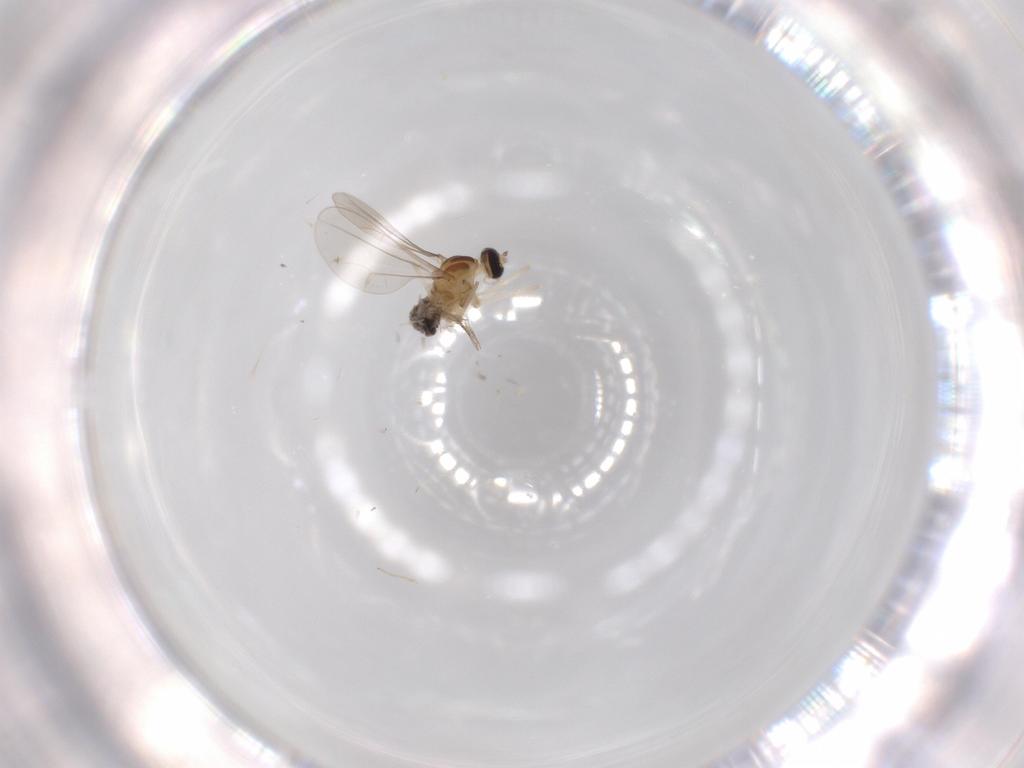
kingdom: Animalia
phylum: Arthropoda
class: Insecta
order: Diptera
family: Cecidomyiidae
